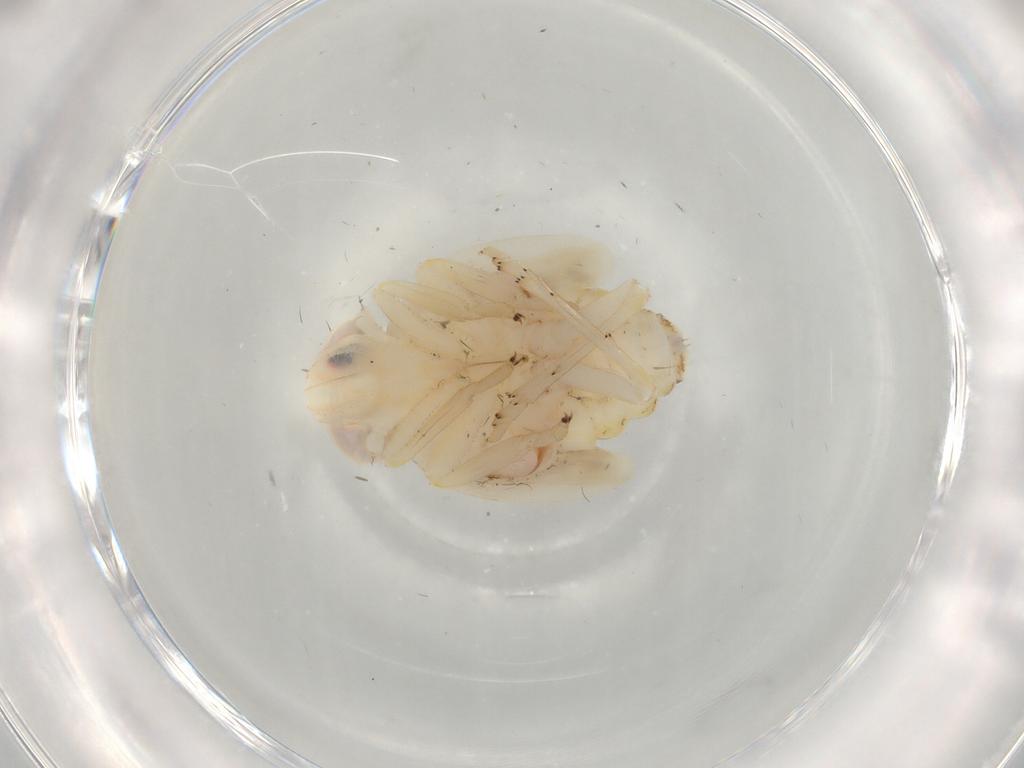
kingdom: Animalia
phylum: Arthropoda
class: Insecta
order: Hemiptera
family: Nogodinidae
